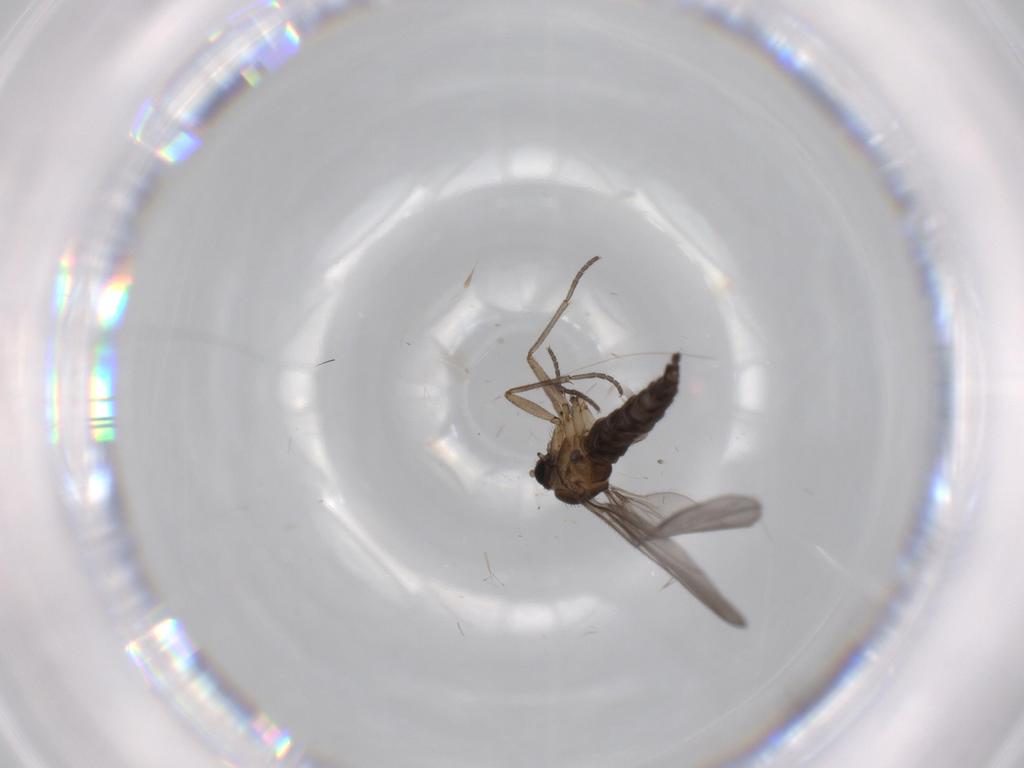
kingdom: Animalia
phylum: Arthropoda
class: Insecta
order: Diptera
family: Sciaridae
